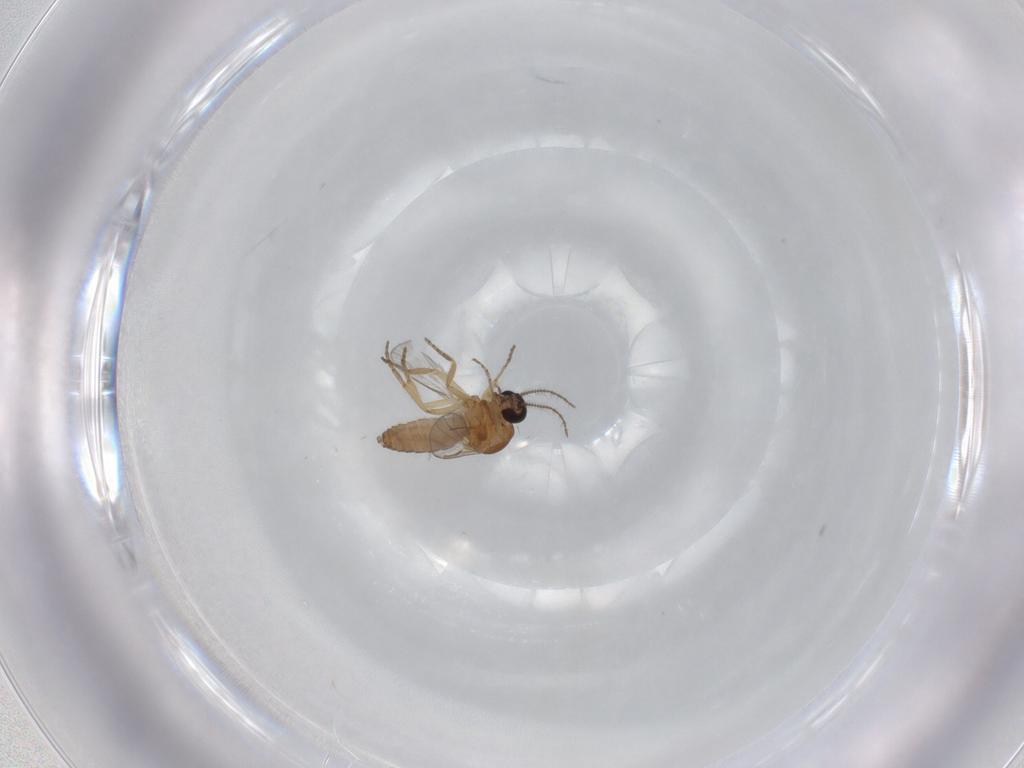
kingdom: Animalia
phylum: Arthropoda
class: Insecta
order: Diptera
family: Ceratopogonidae
